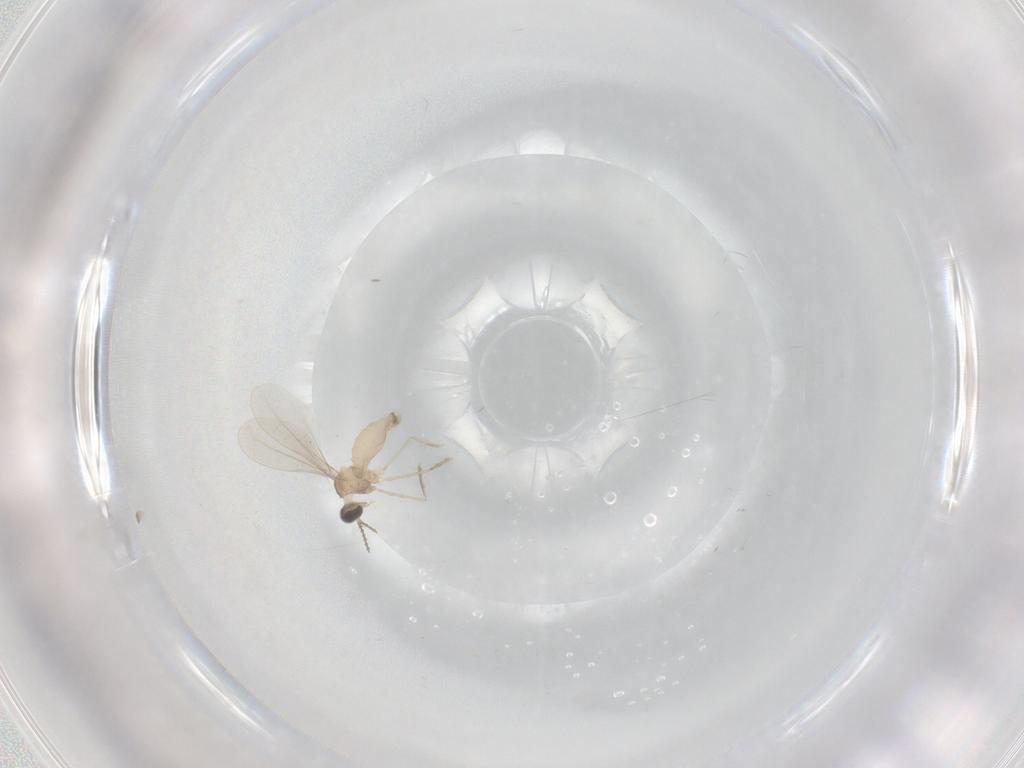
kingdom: Animalia
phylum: Arthropoda
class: Insecta
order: Diptera
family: Cecidomyiidae
